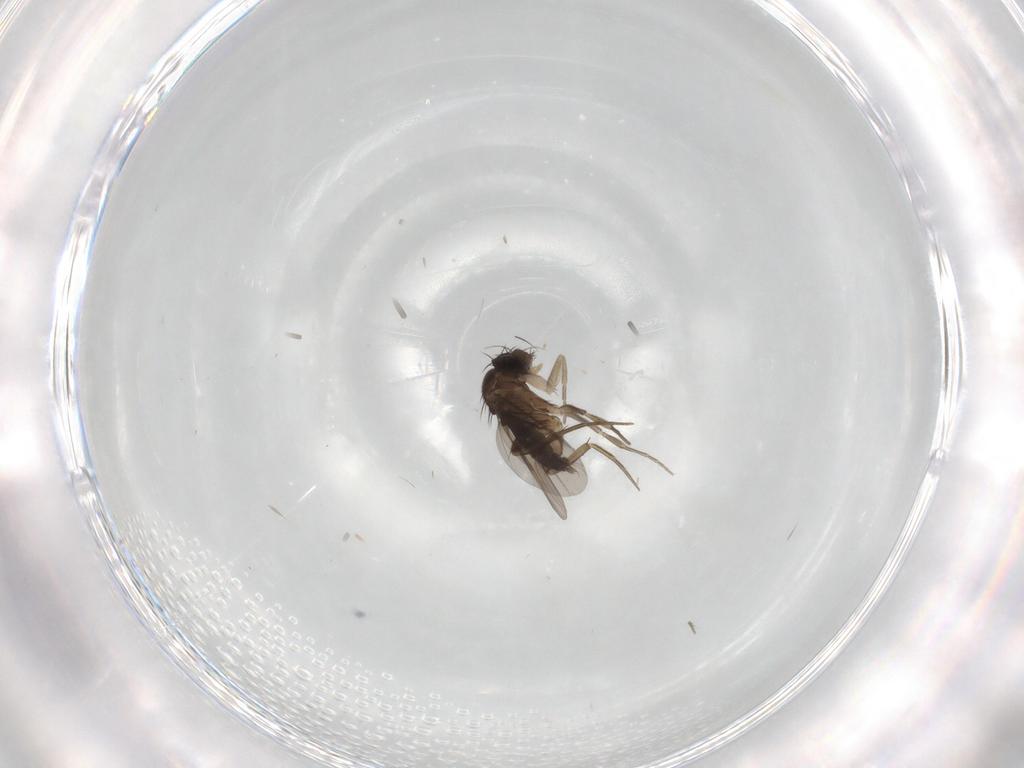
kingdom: Animalia
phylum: Arthropoda
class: Insecta
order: Diptera
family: Phoridae
